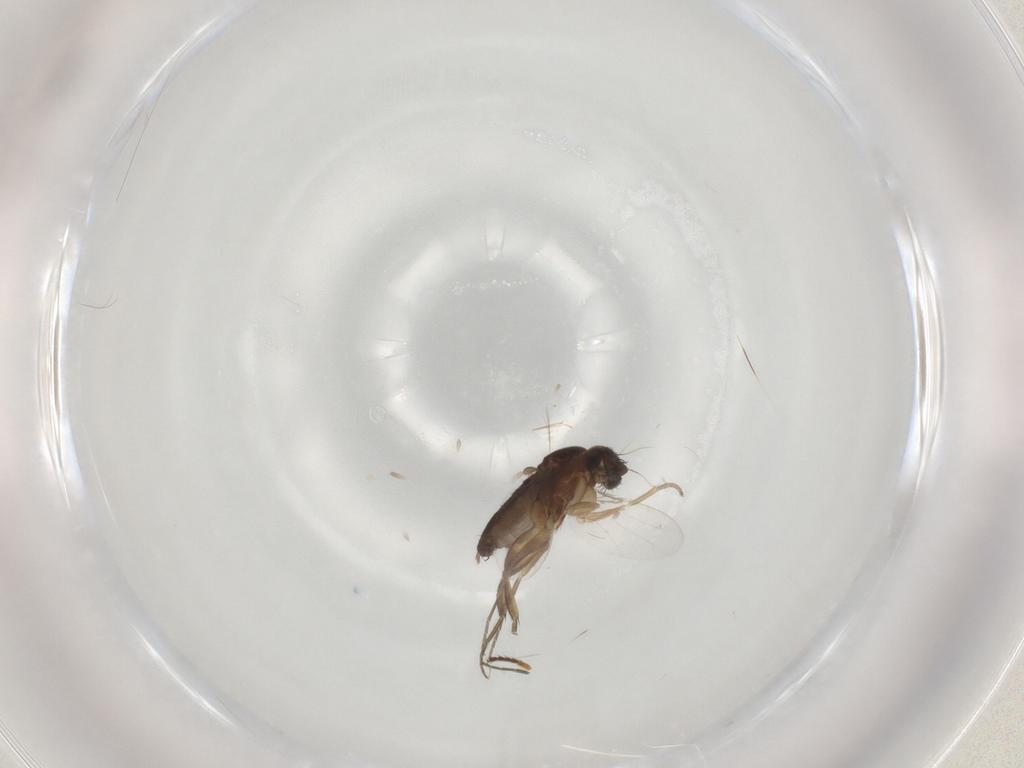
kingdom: Animalia
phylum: Arthropoda
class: Insecta
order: Diptera
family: Phoridae
